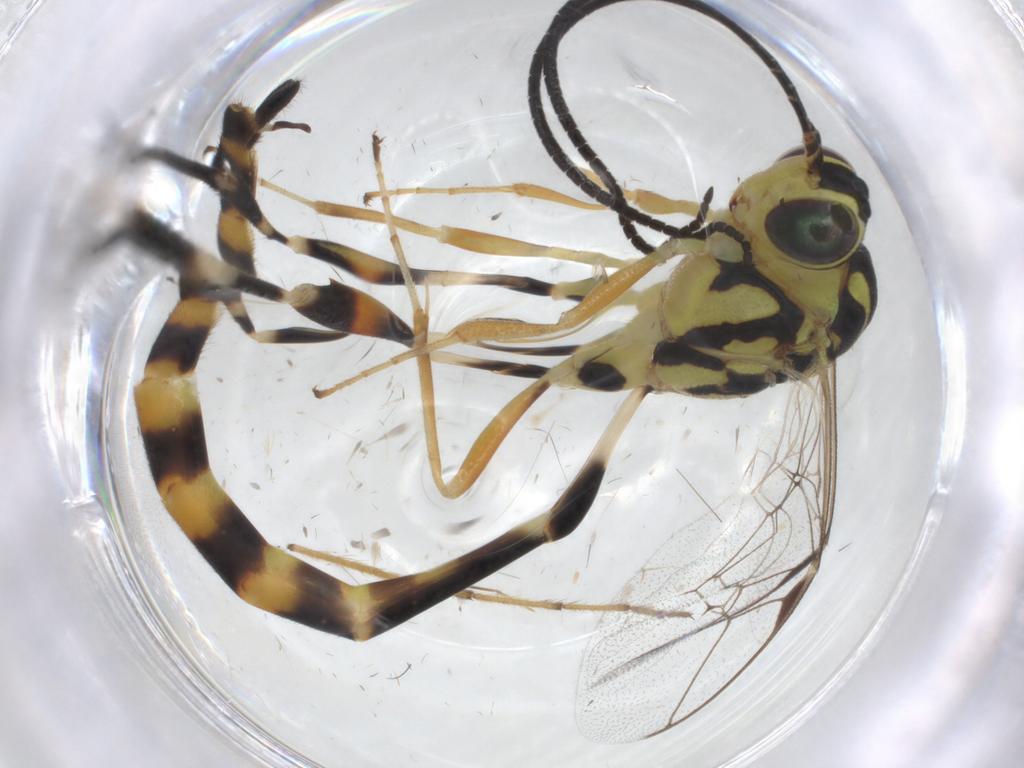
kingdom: Animalia
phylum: Arthropoda
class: Insecta
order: Hymenoptera
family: Ichneumonidae
